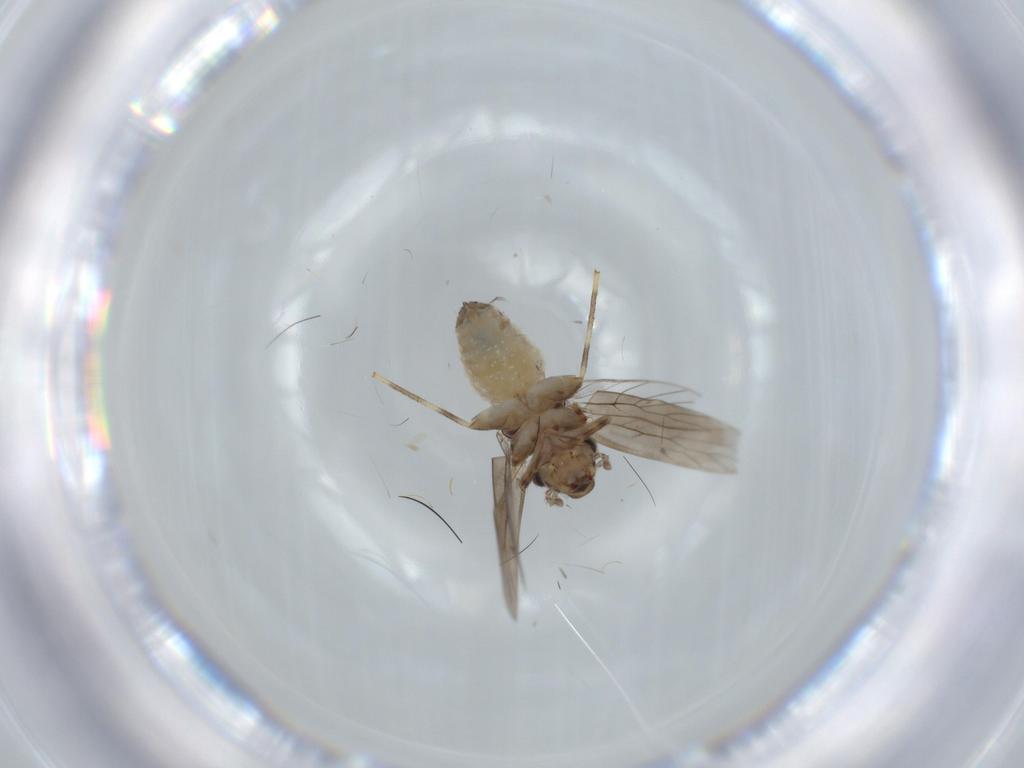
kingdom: Animalia
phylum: Arthropoda
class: Insecta
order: Psocodea
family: Lepidopsocidae
